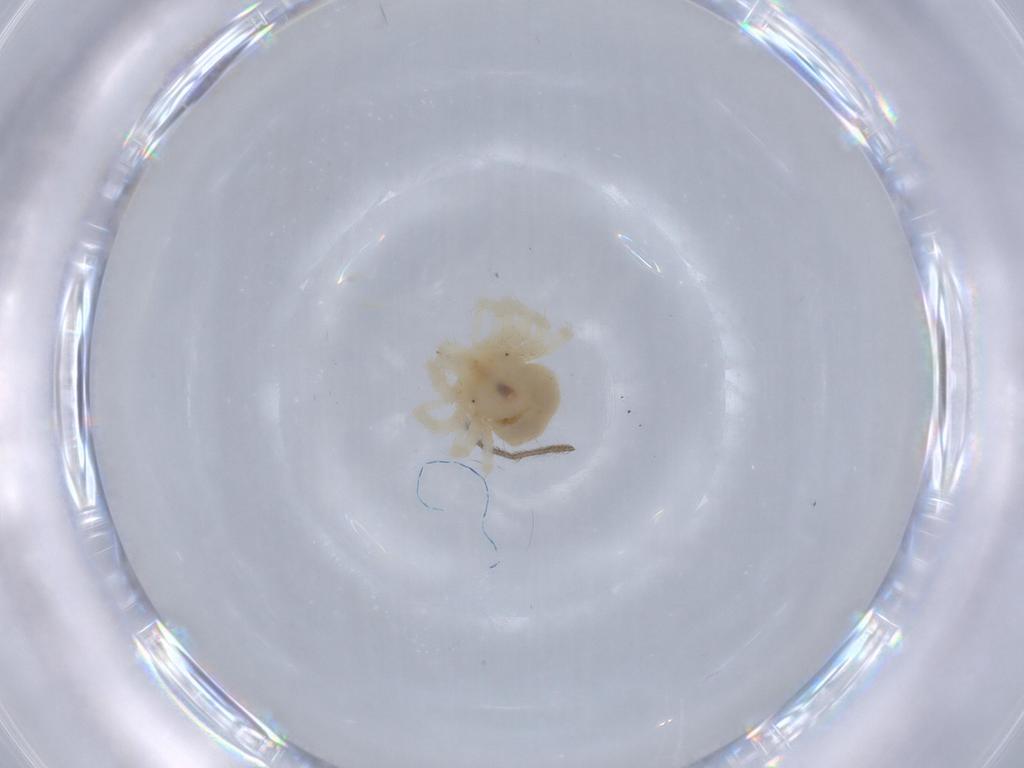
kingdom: Animalia
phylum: Arthropoda
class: Arachnida
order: Trombidiformes
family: Anystidae
